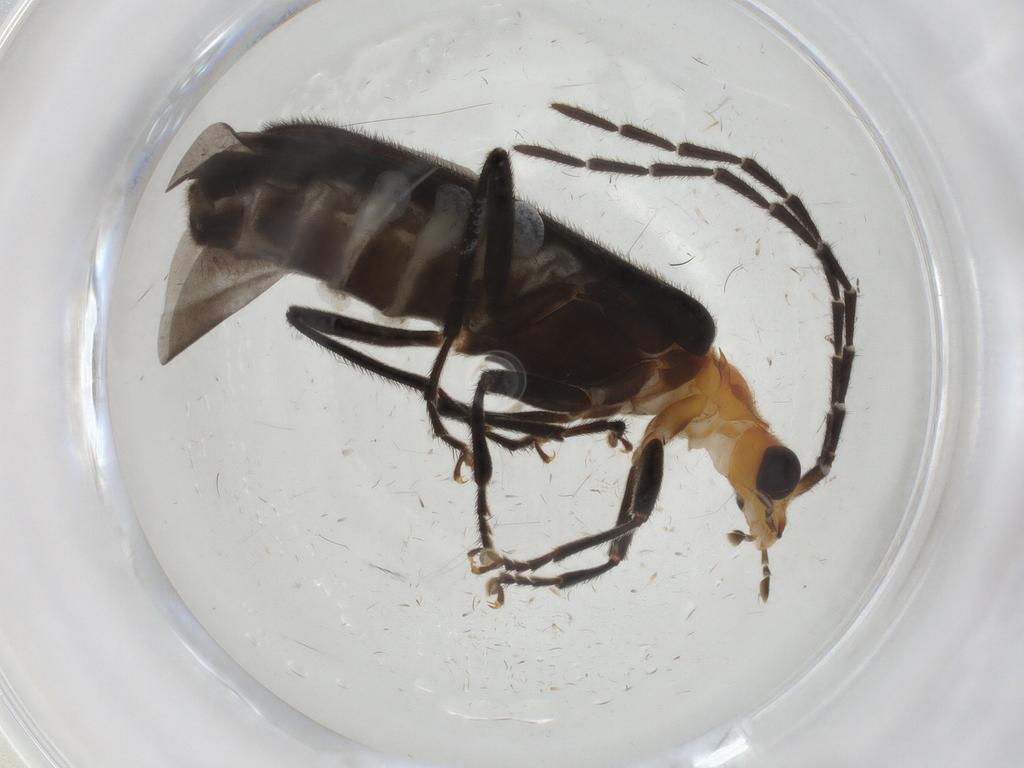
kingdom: Animalia
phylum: Arthropoda
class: Insecta
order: Coleoptera
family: Cantharidae
